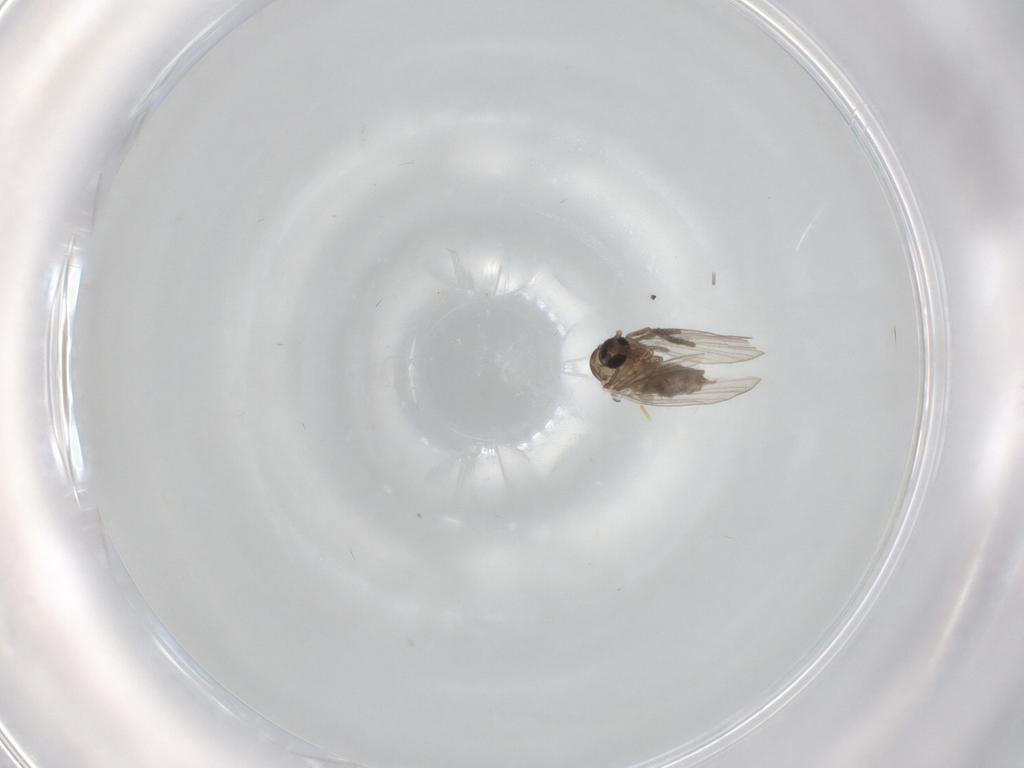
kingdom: Animalia
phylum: Arthropoda
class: Insecta
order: Diptera
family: Psychodidae
